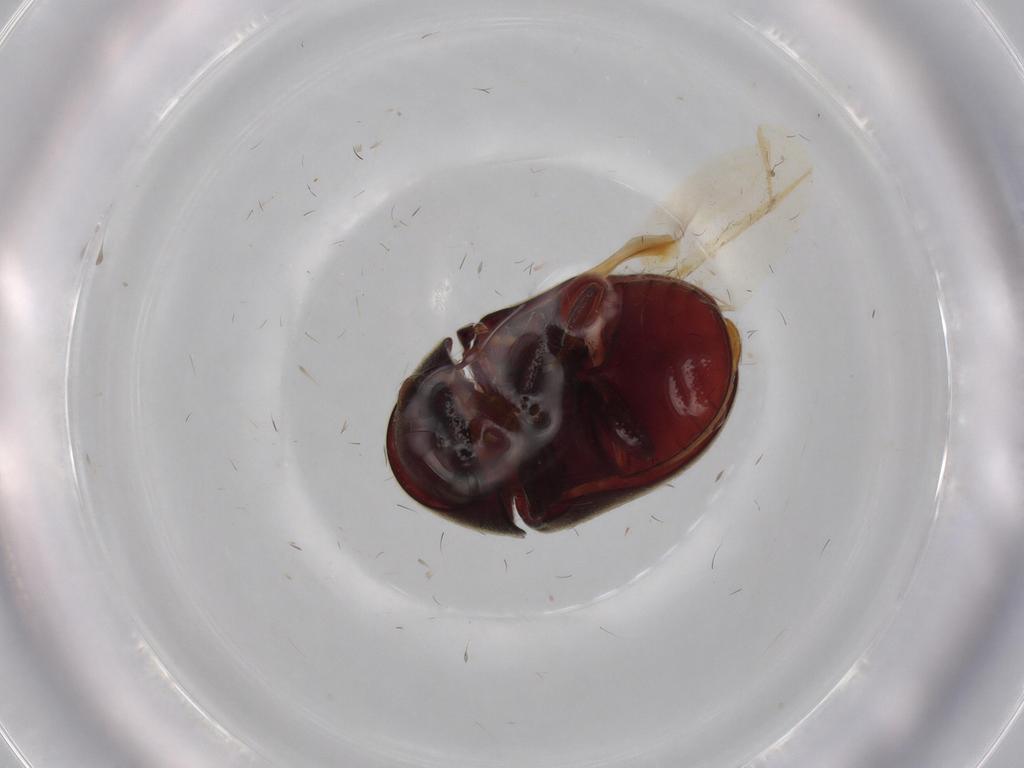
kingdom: Animalia
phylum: Arthropoda
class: Insecta
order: Coleoptera
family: Ptinidae
